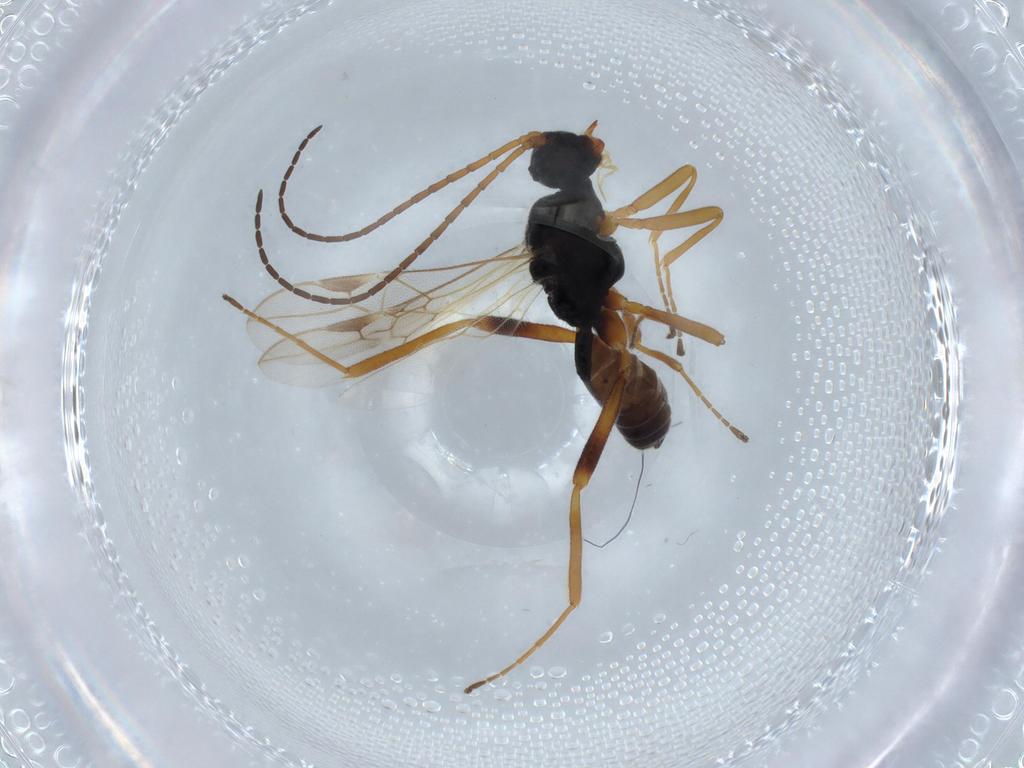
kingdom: Animalia
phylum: Arthropoda
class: Insecta
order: Hymenoptera
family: Braconidae
